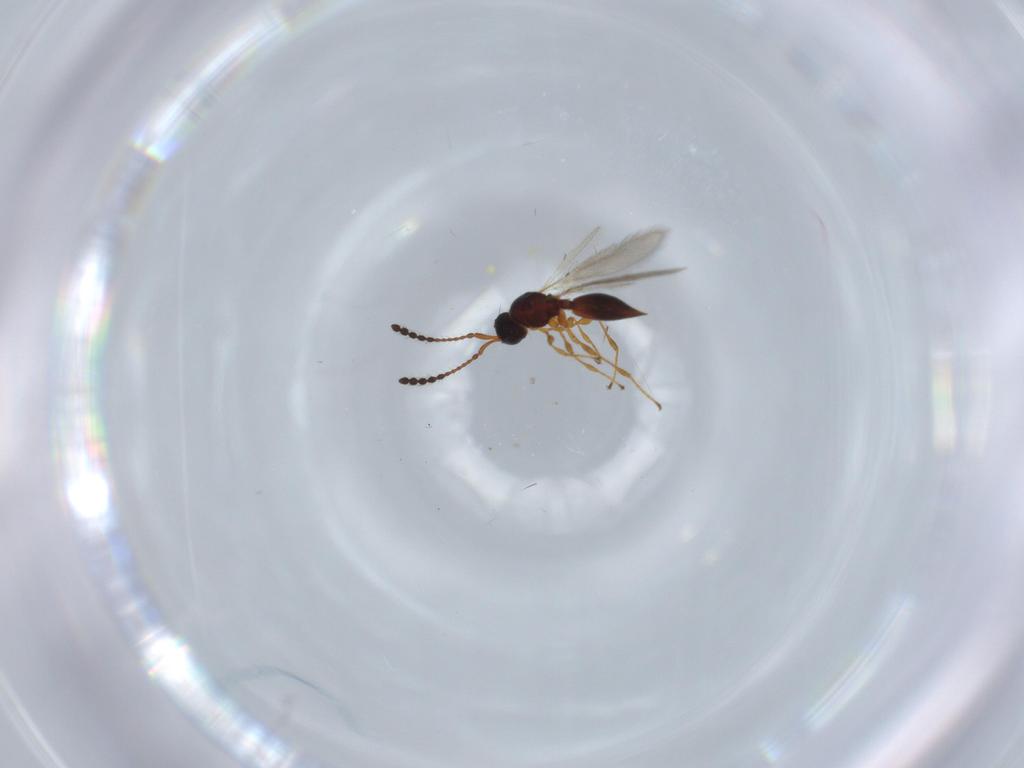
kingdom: Animalia
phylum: Arthropoda
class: Insecta
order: Hymenoptera
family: Diapriidae
